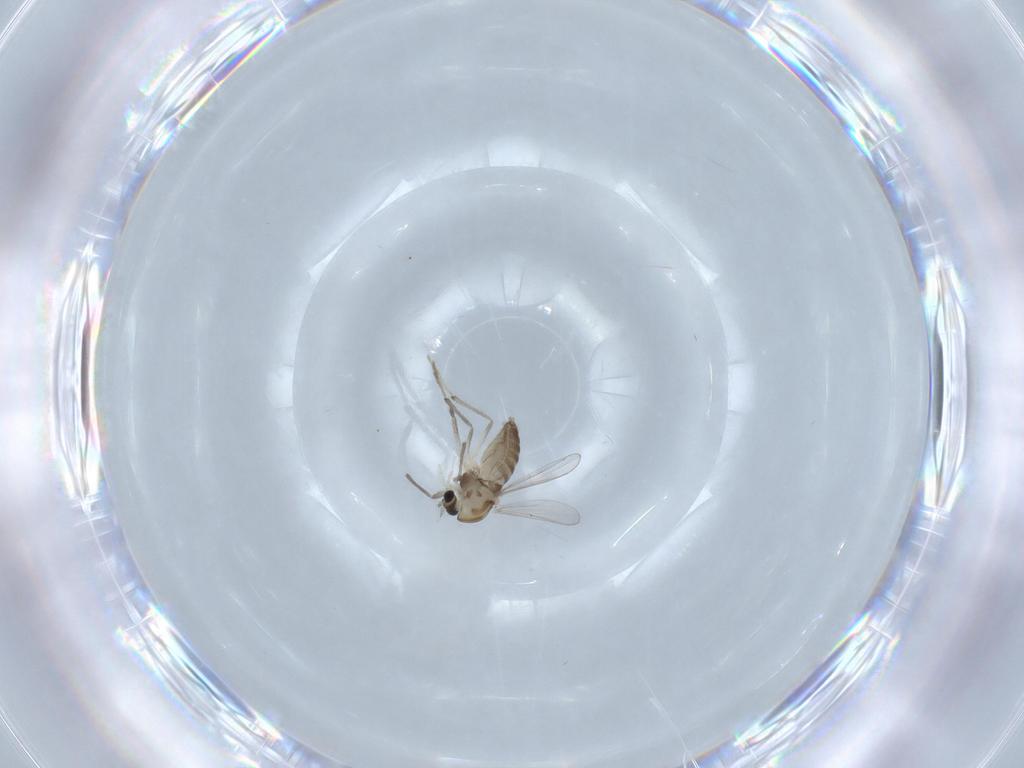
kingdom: Animalia
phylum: Arthropoda
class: Insecta
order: Diptera
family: Chironomidae
